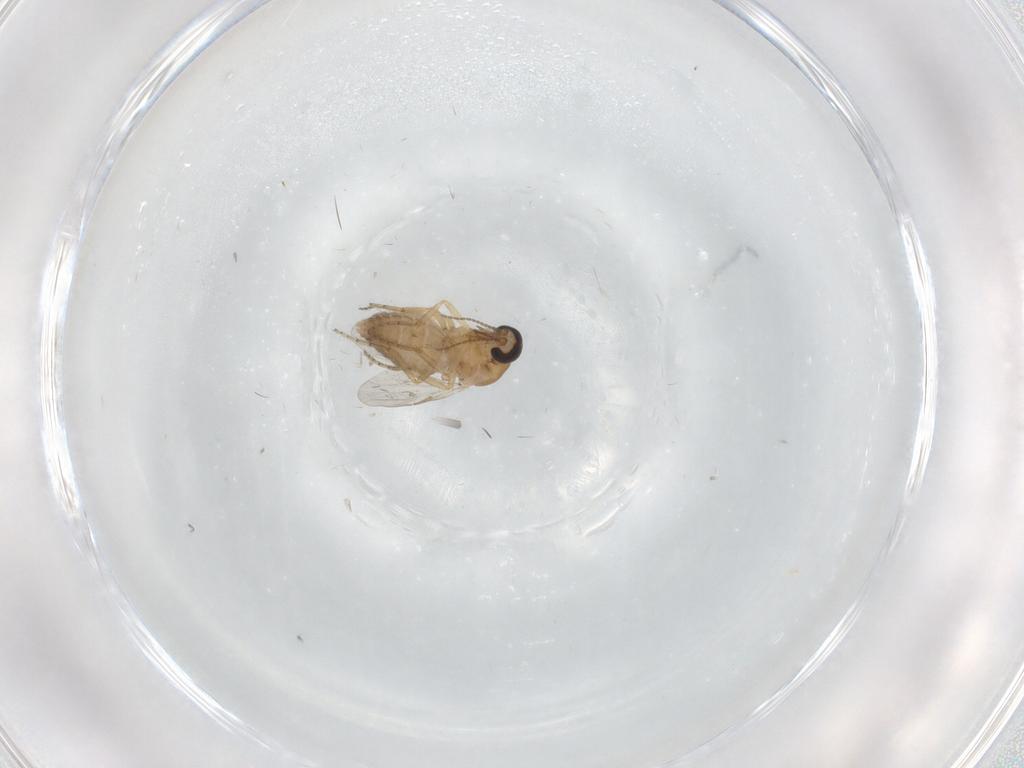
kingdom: Animalia
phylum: Arthropoda
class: Insecta
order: Diptera
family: Ceratopogonidae
